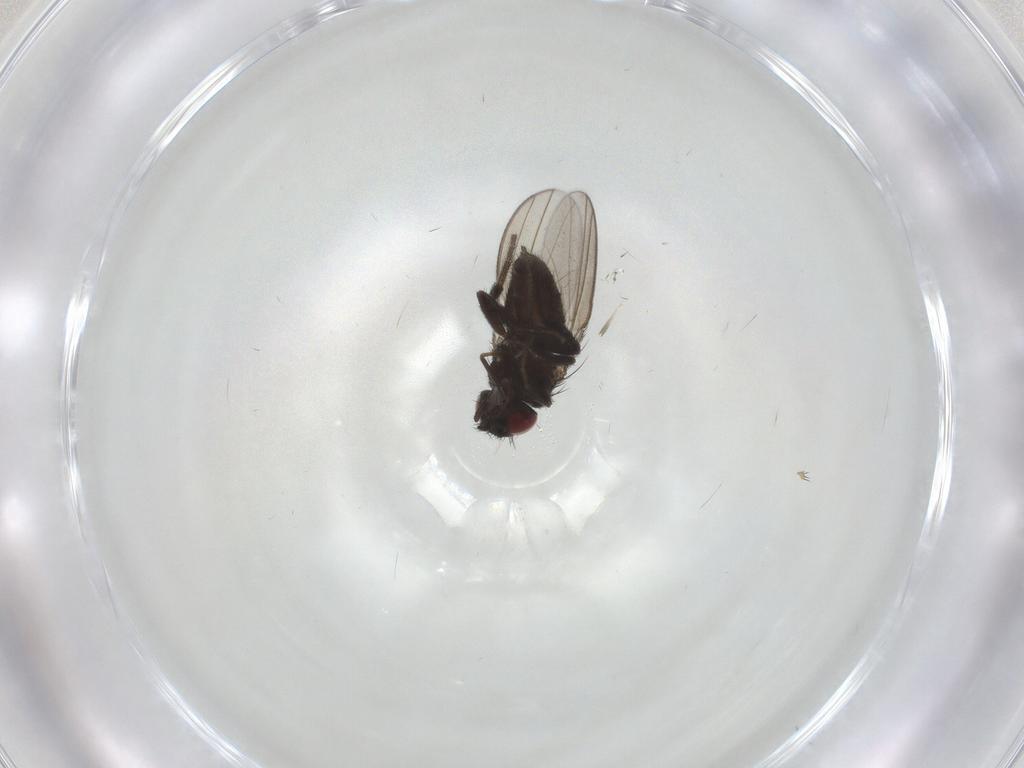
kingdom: Animalia
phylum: Arthropoda
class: Insecta
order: Diptera
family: Ceratopogonidae
